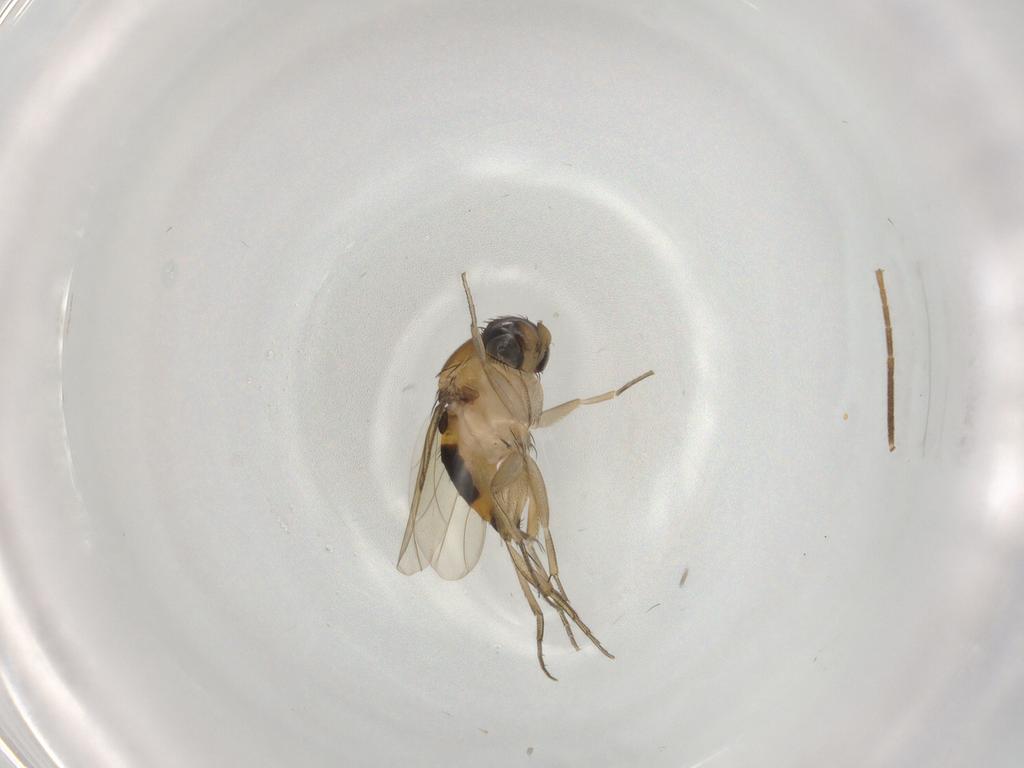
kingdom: Animalia
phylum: Arthropoda
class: Insecta
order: Diptera
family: Phoridae
